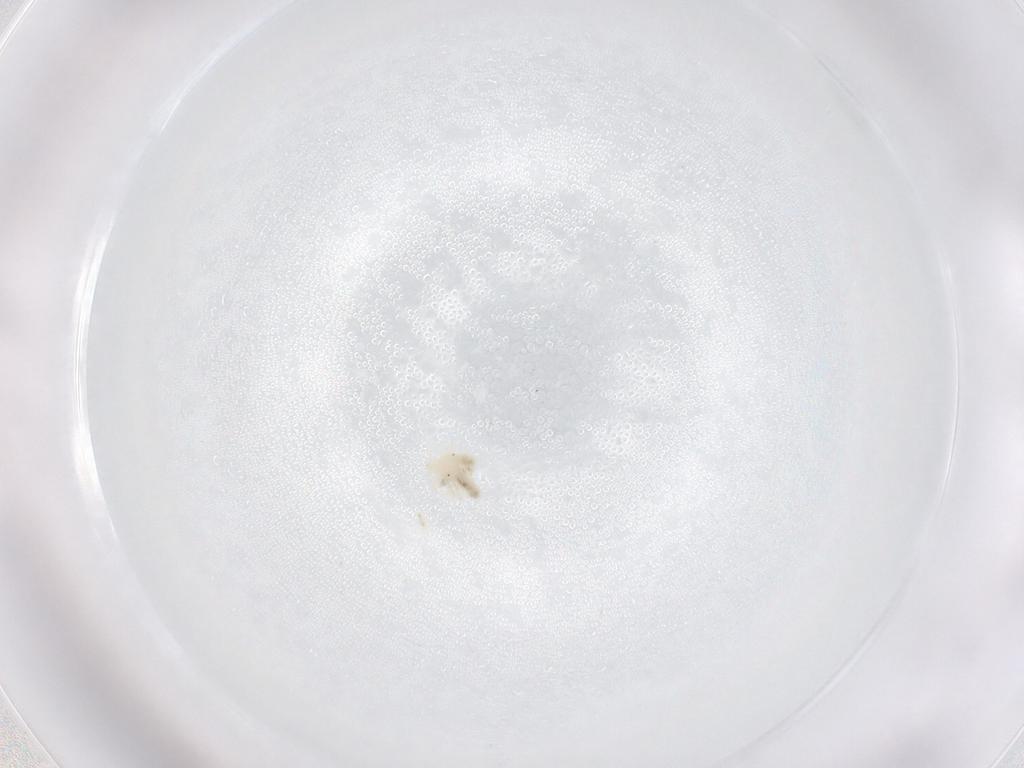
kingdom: Animalia
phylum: Arthropoda
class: Arachnida
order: Trombidiformes
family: Anystidae
